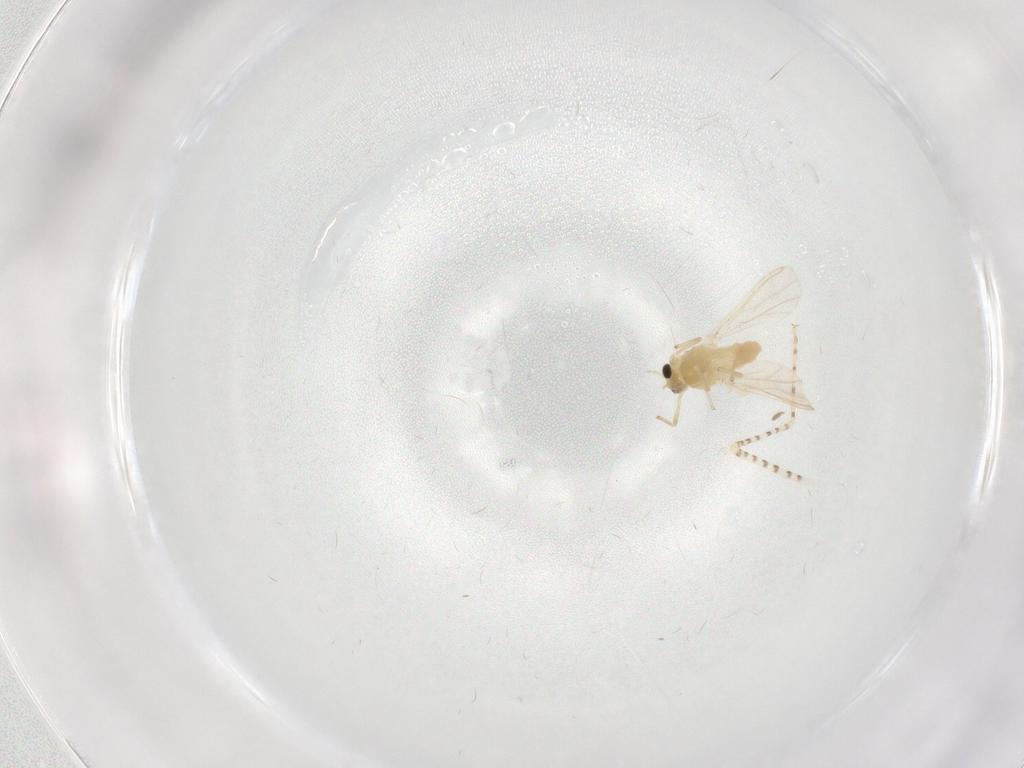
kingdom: Animalia
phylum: Arthropoda
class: Insecta
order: Diptera
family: Chironomidae
